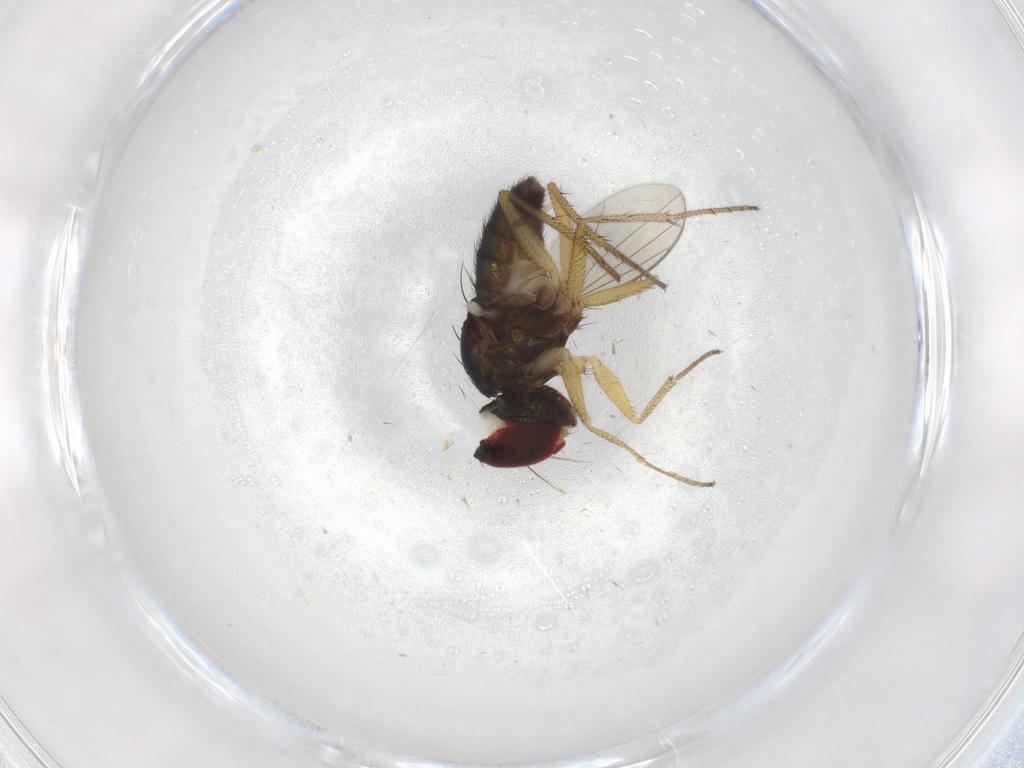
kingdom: Animalia
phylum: Arthropoda
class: Insecta
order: Diptera
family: Dolichopodidae
